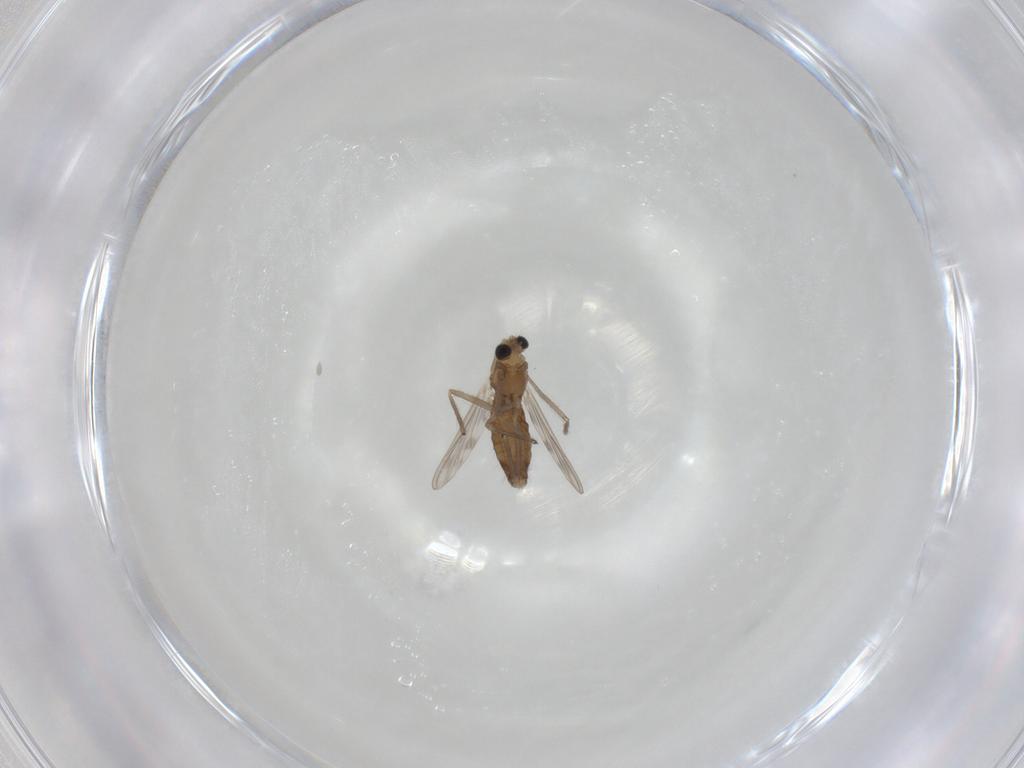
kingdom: Animalia
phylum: Arthropoda
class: Insecta
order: Diptera
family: Chironomidae
